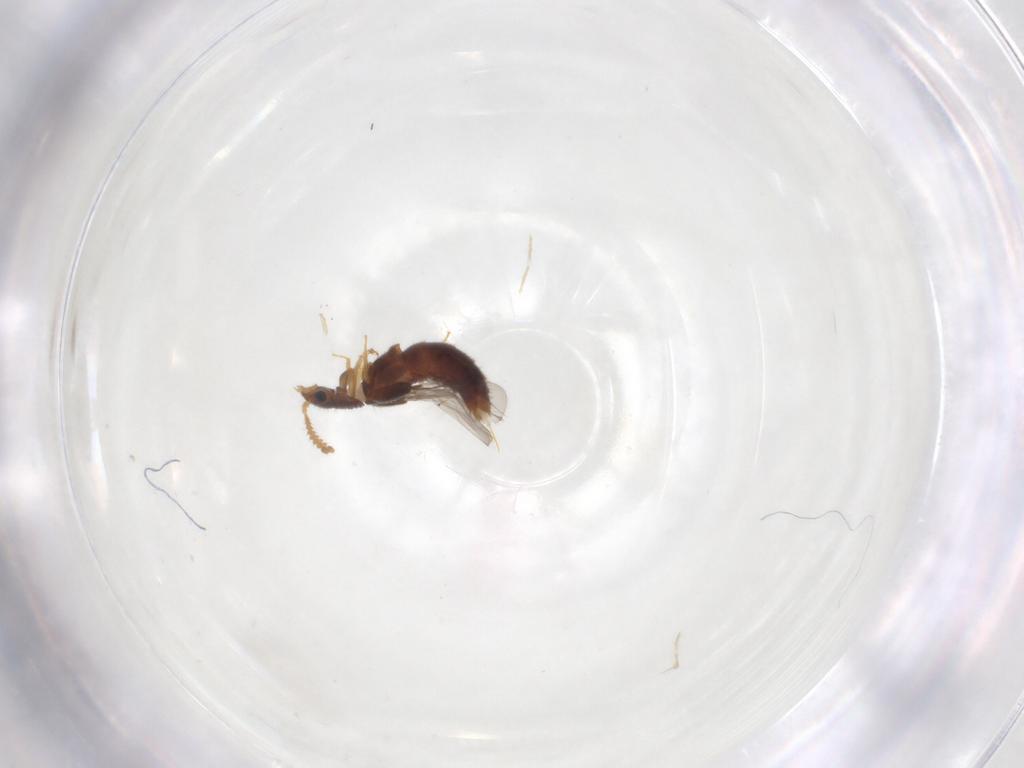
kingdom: Animalia
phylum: Arthropoda
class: Insecta
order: Coleoptera
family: Staphylinidae
